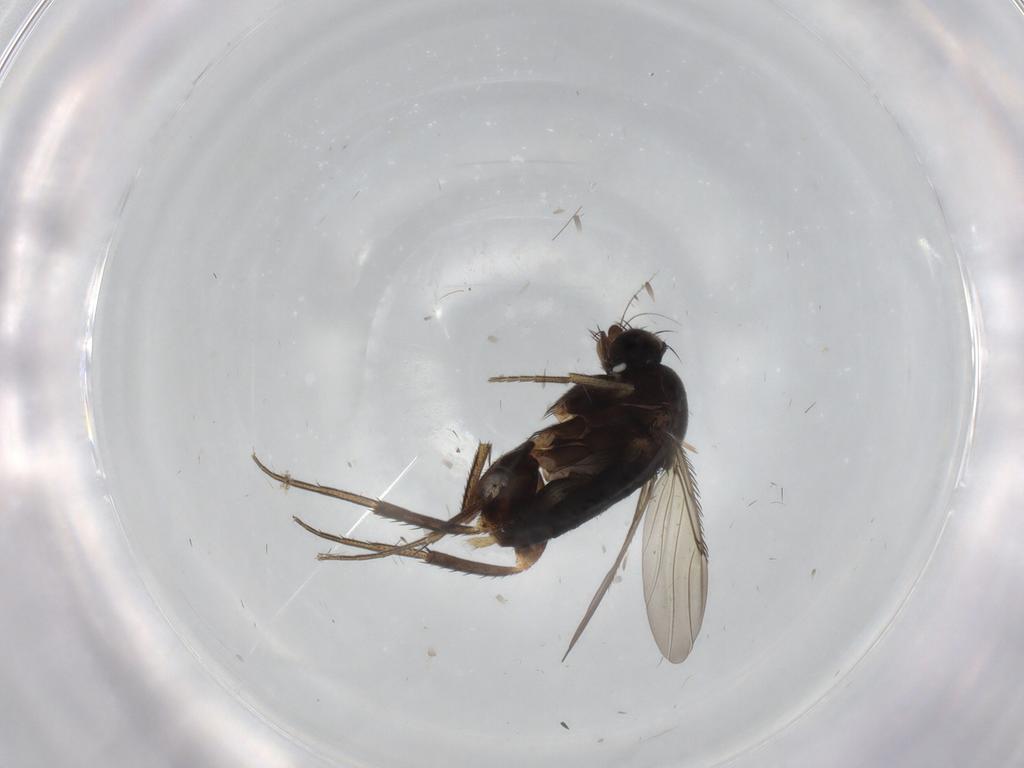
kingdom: Animalia
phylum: Arthropoda
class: Insecta
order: Diptera
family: Phoridae
